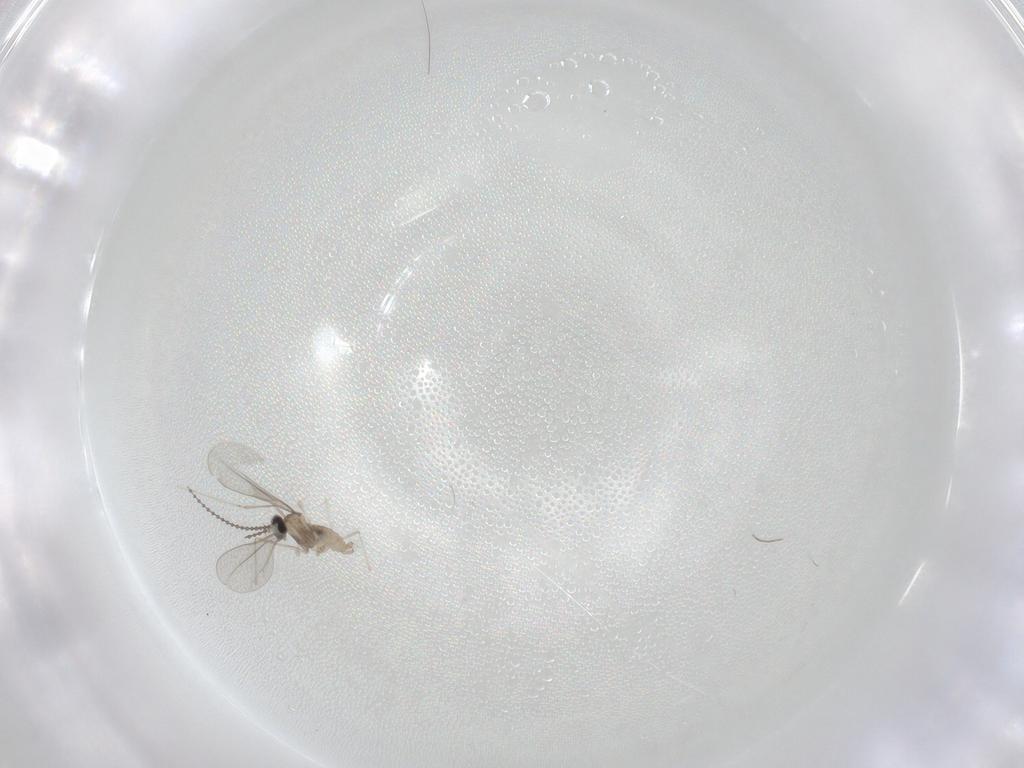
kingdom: Animalia
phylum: Arthropoda
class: Insecta
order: Diptera
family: Cecidomyiidae
